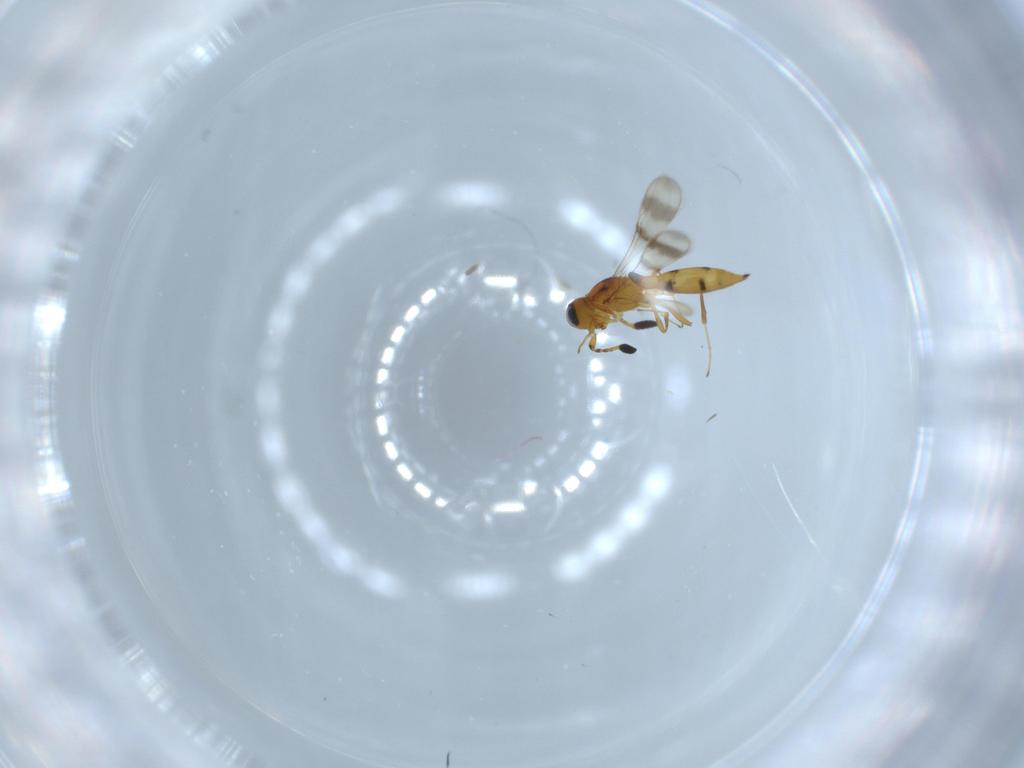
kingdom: Animalia
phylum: Arthropoda
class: Insecta
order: Hymenoptera
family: Scelionidae
